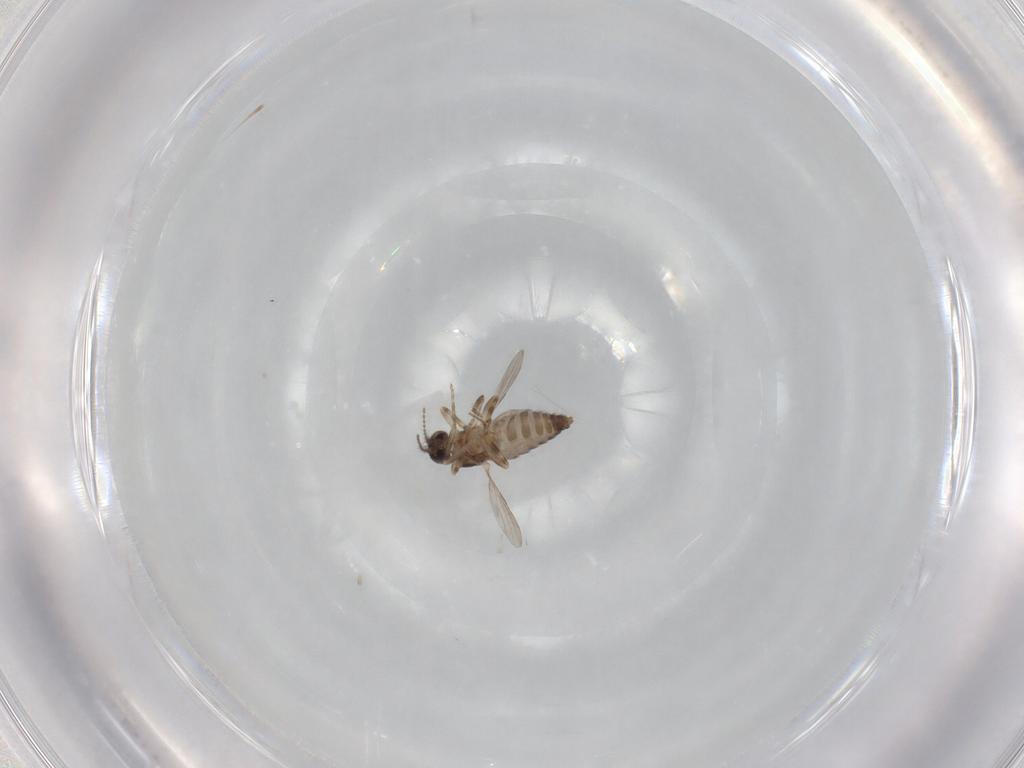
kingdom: Animalia
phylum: Arthropoda
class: Insecta
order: Diptera
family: Ceratopogonidae
